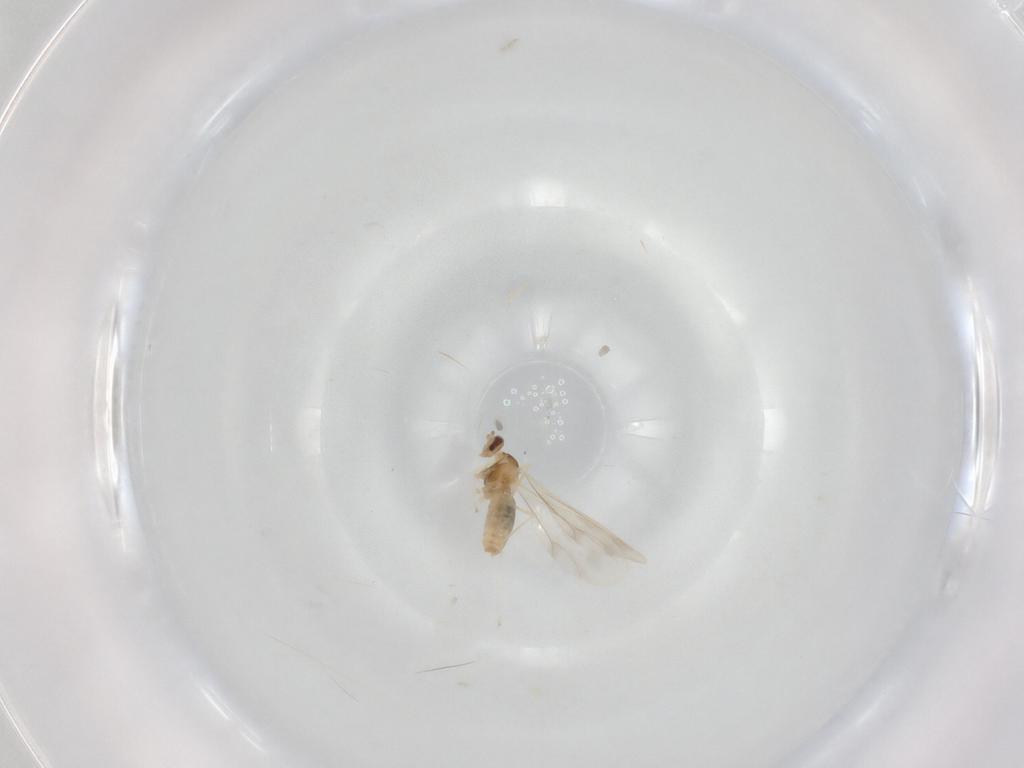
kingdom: Animalia
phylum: Arthropoda
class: Insecta
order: Diptera
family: Cecidomyiidae
